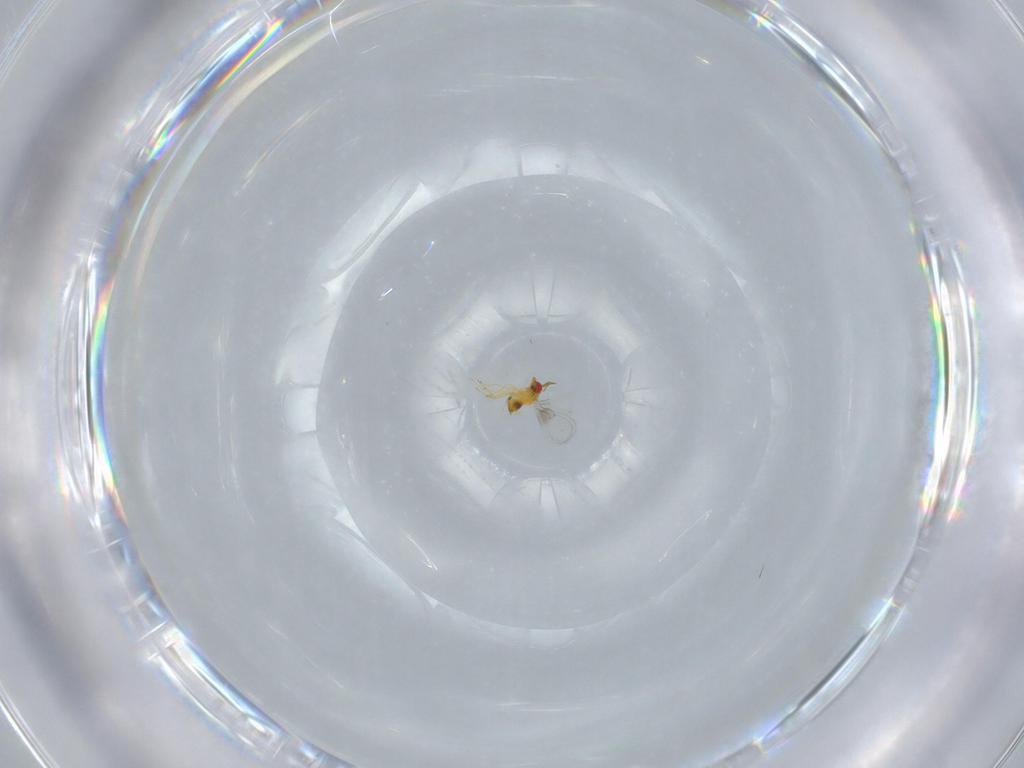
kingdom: Animalia
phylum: Arthropoda
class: Insecta
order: Hymenoptera
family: Trichogrammatidae
